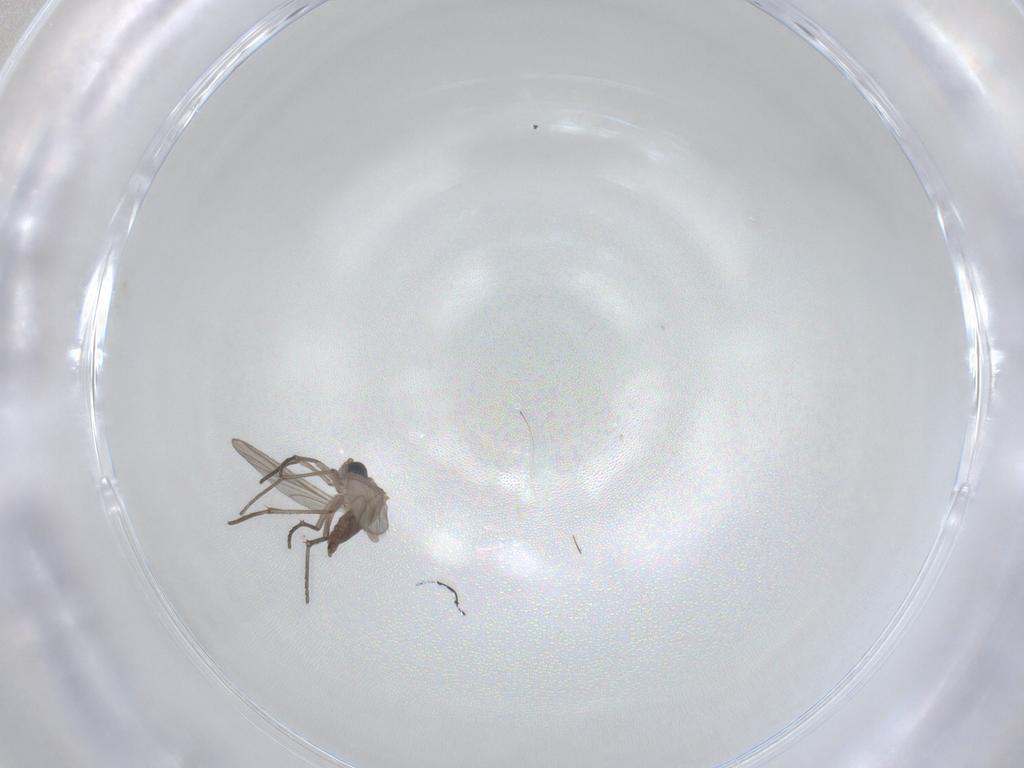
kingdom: Animalia
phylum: Arthropoda
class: Insecta
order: Diptera
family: Sciaridae
